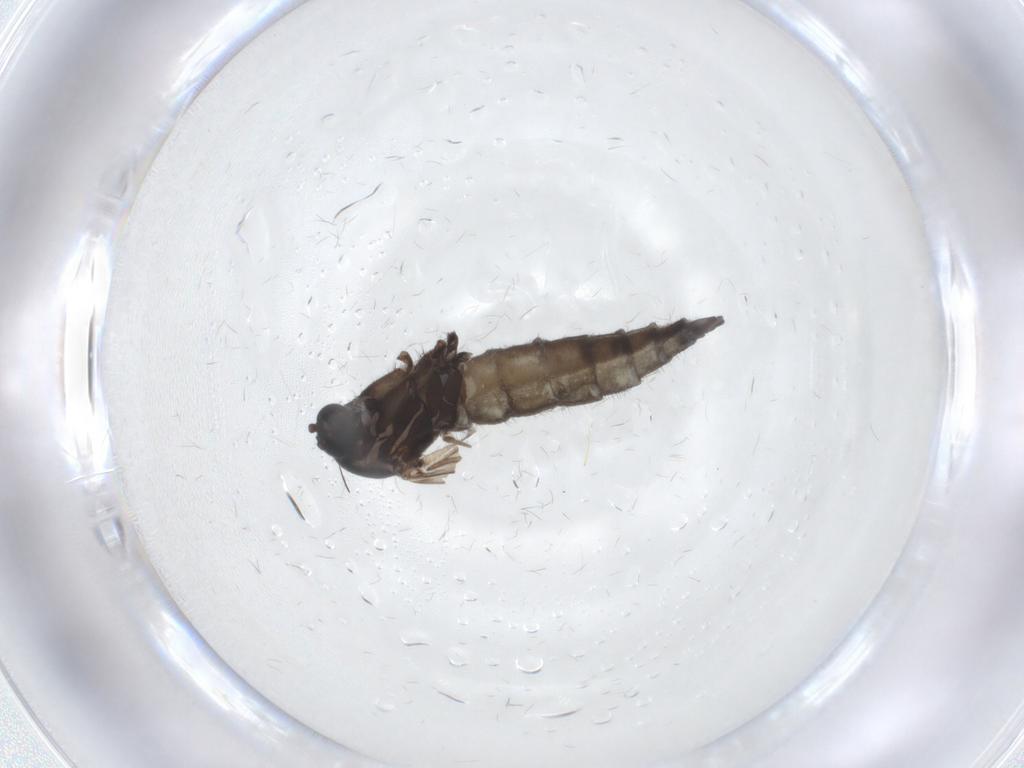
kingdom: Animalia
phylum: Arthropoda
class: Insecta
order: Diptera
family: Sciaridae
